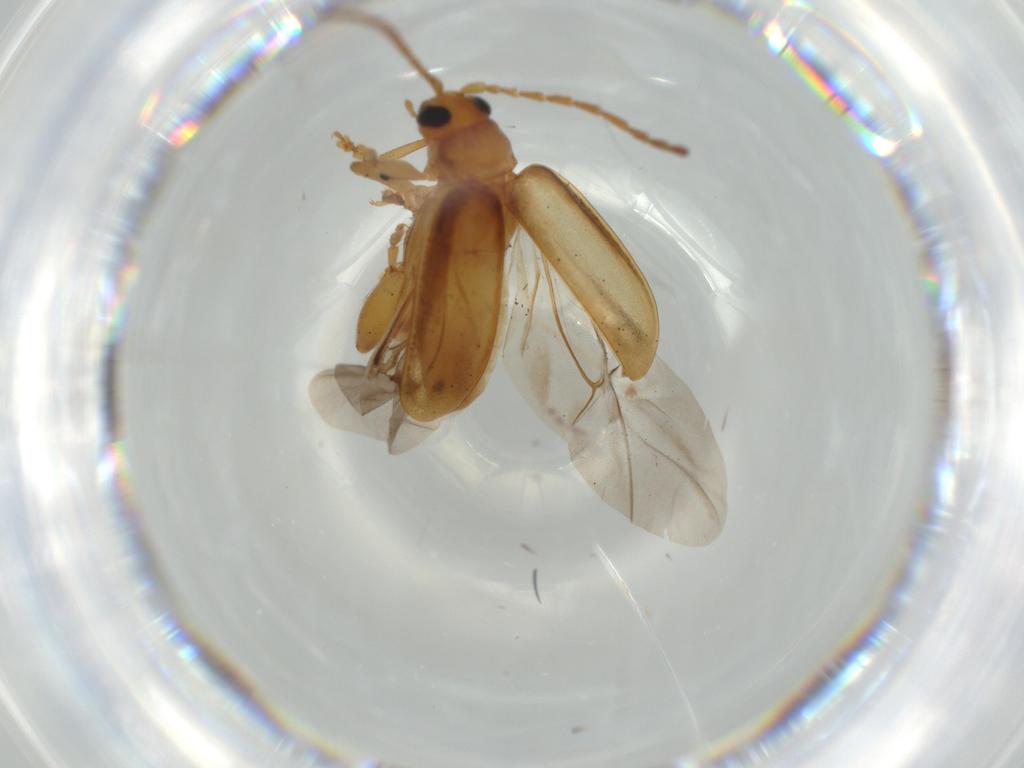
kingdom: Animalia
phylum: Arthropoda
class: Insecta
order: Coleoptera
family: Chrysomelidae
